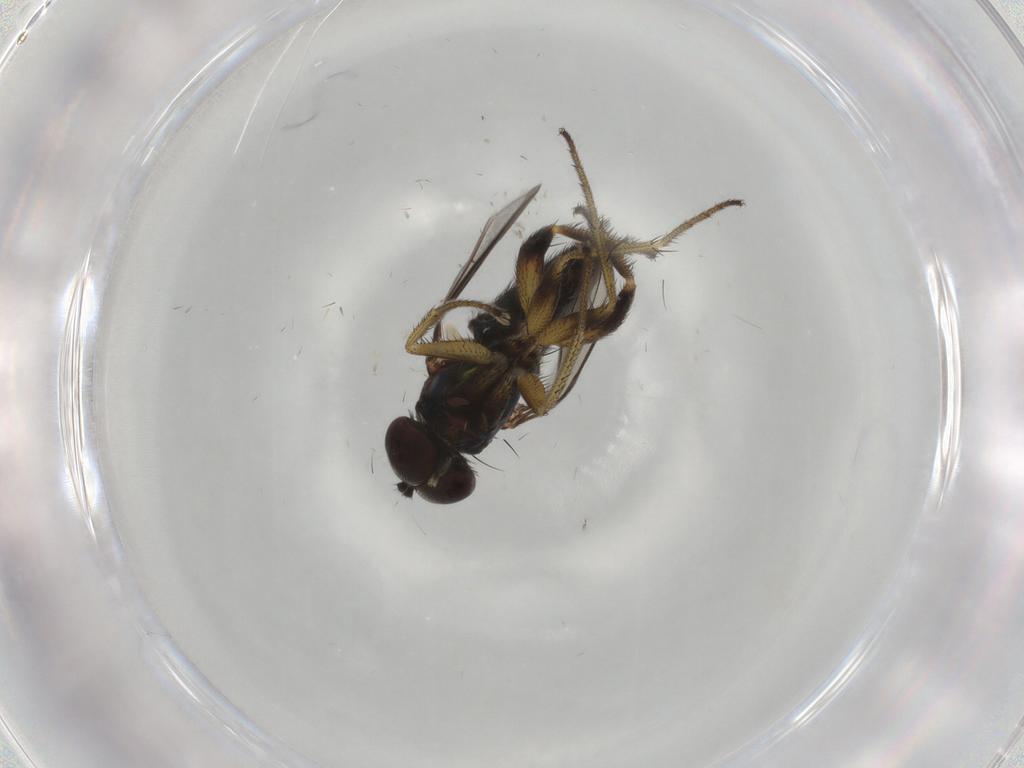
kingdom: Animalia
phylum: Arthropoda
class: Insecta
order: Diptera
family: Dolichopodidae
